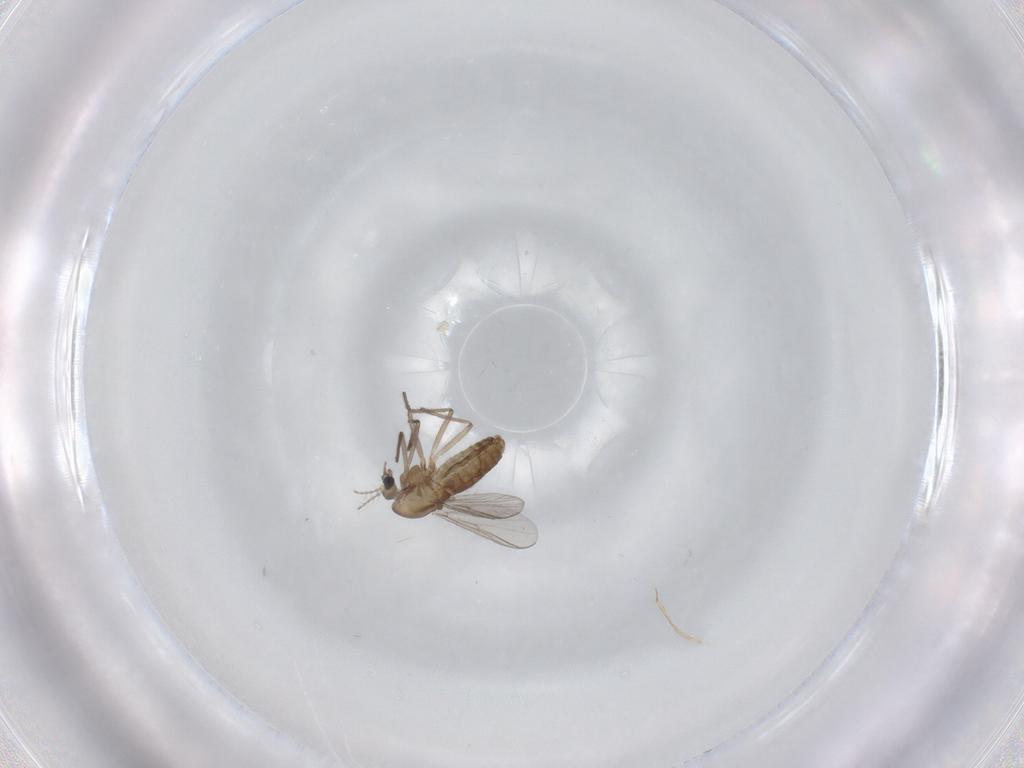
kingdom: Animalia
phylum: Arthropoda
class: Insecta
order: Diptera
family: Chironomidae
